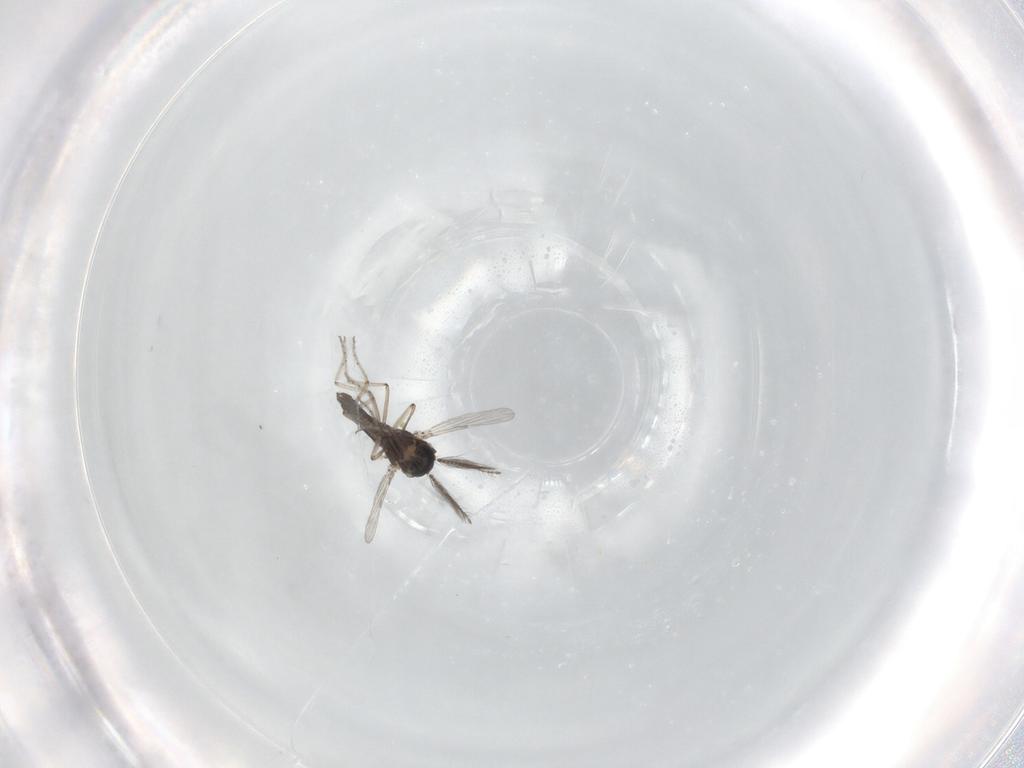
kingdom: Animalia
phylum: Arthropoda
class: Insecta
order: Diptera
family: Ceratopogonidae
